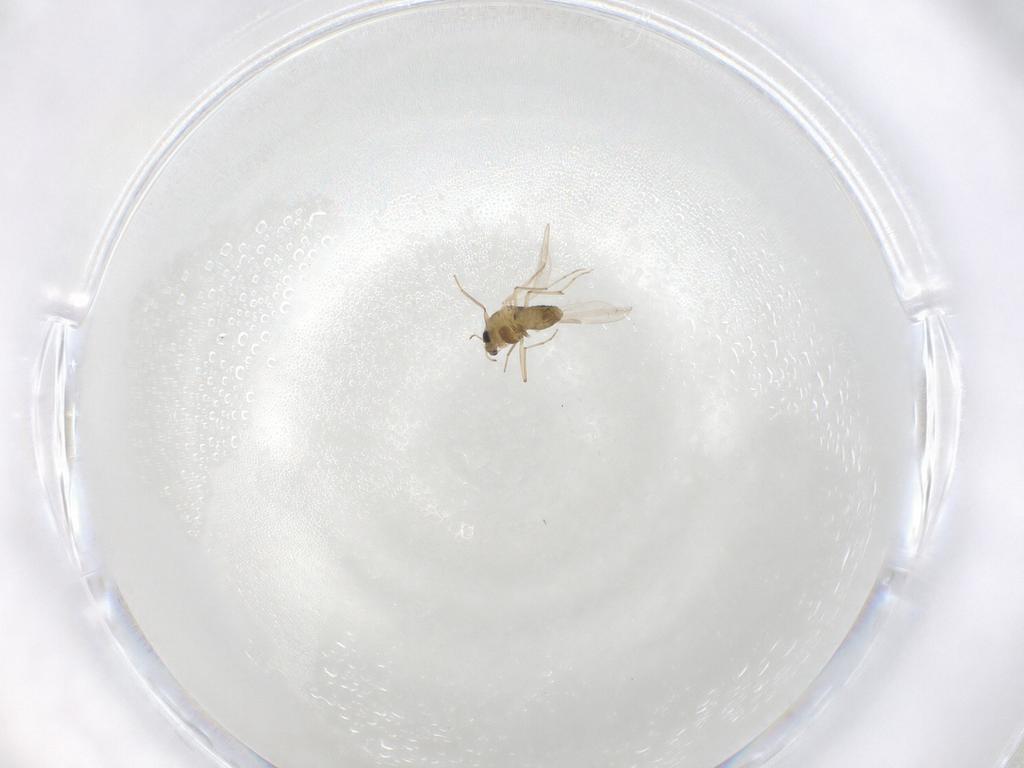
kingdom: Animalia
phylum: Arthropoda
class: Insecta
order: Diptera
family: Chironomidae
